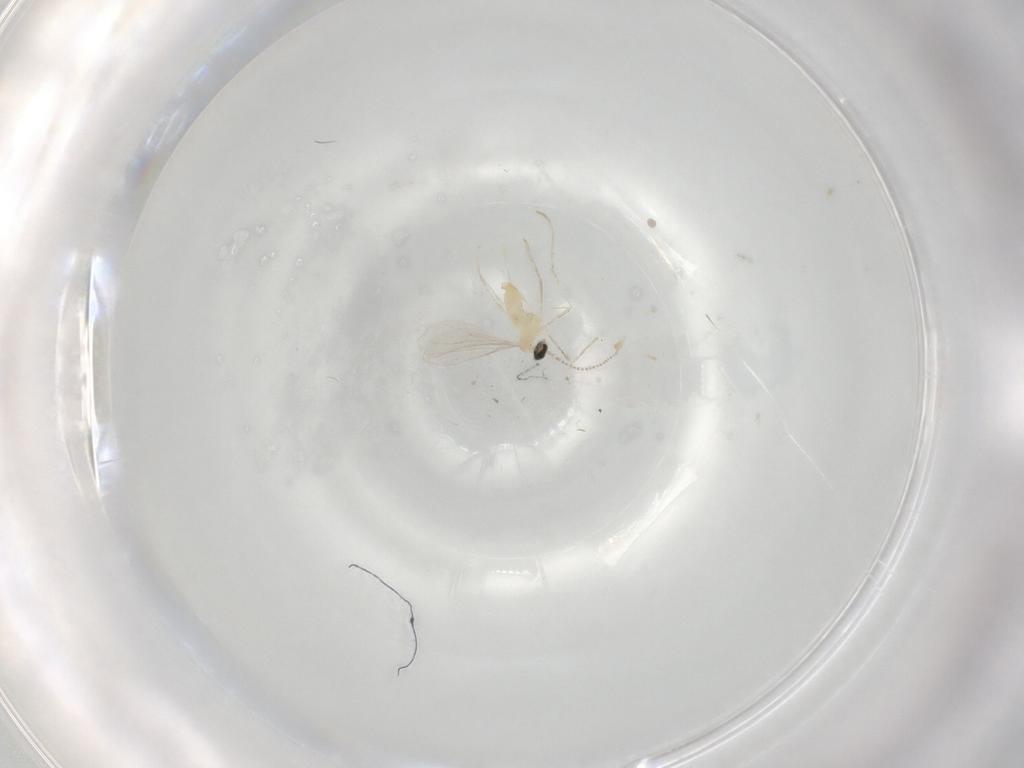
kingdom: Animalia
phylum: Arthropoda
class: Insecta
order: Diptera
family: Cecidomyiidae
